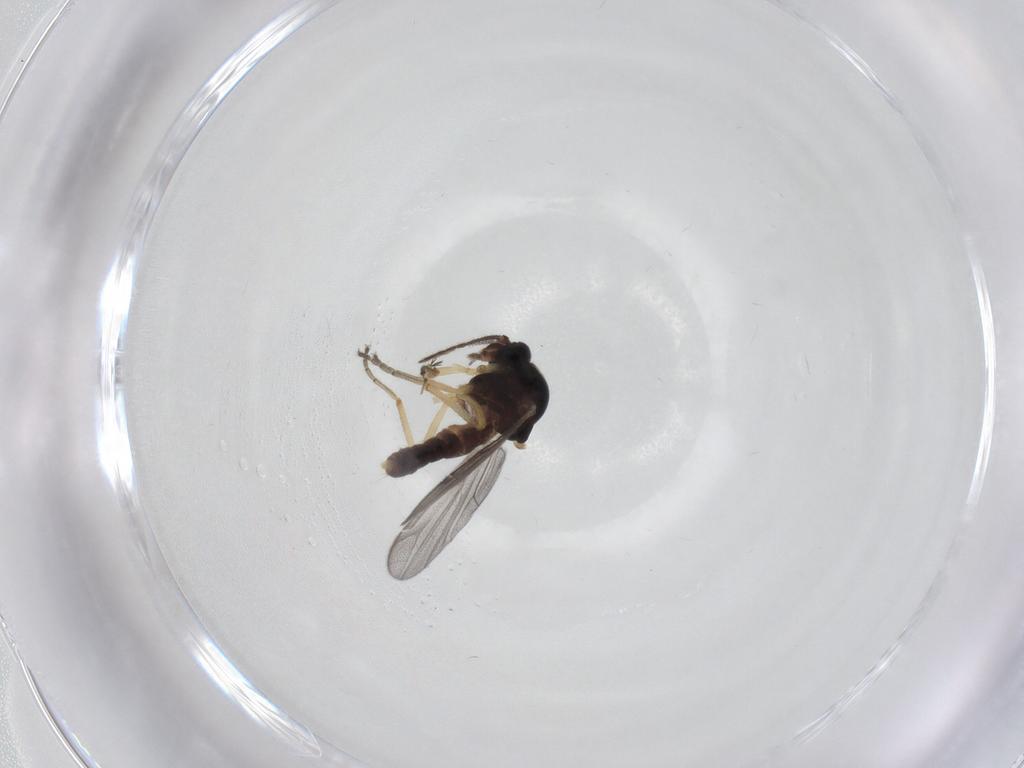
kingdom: Animalia
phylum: Arthropoda
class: Insecta
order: Diptera
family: Ceratopogonidae
